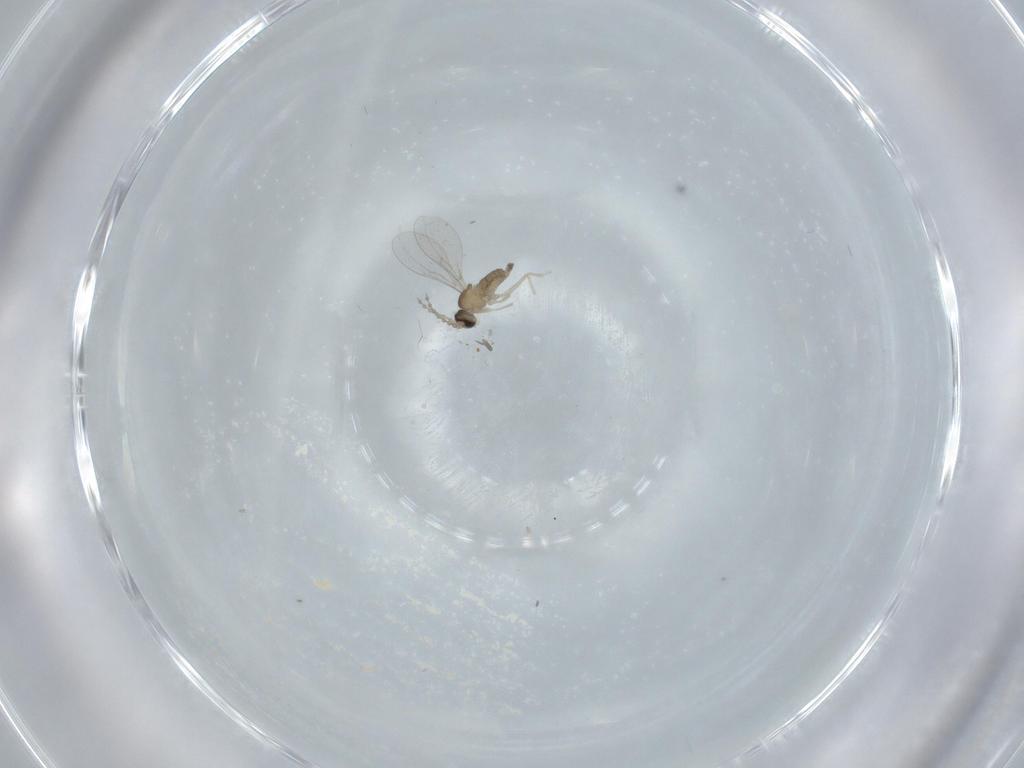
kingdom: Animalia
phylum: Arthropoda
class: Insecta
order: Diptera
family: Cecidomyiidae
